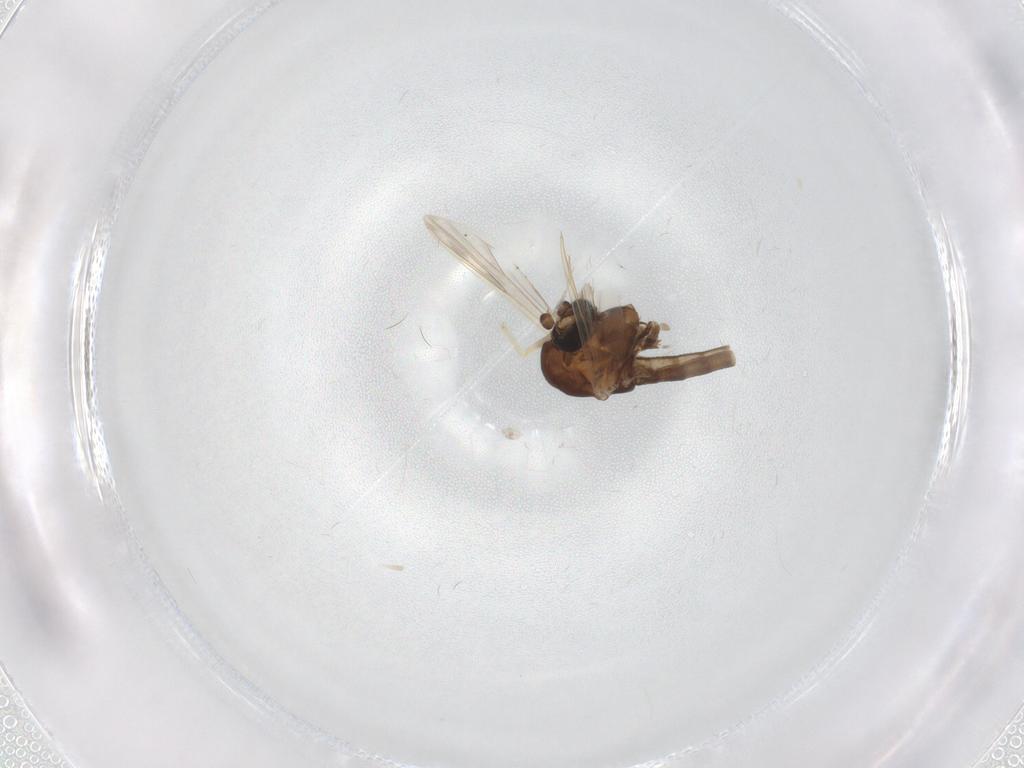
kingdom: Animalia
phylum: Arthropoda
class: Insecta
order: Diptera
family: Chironomidae
